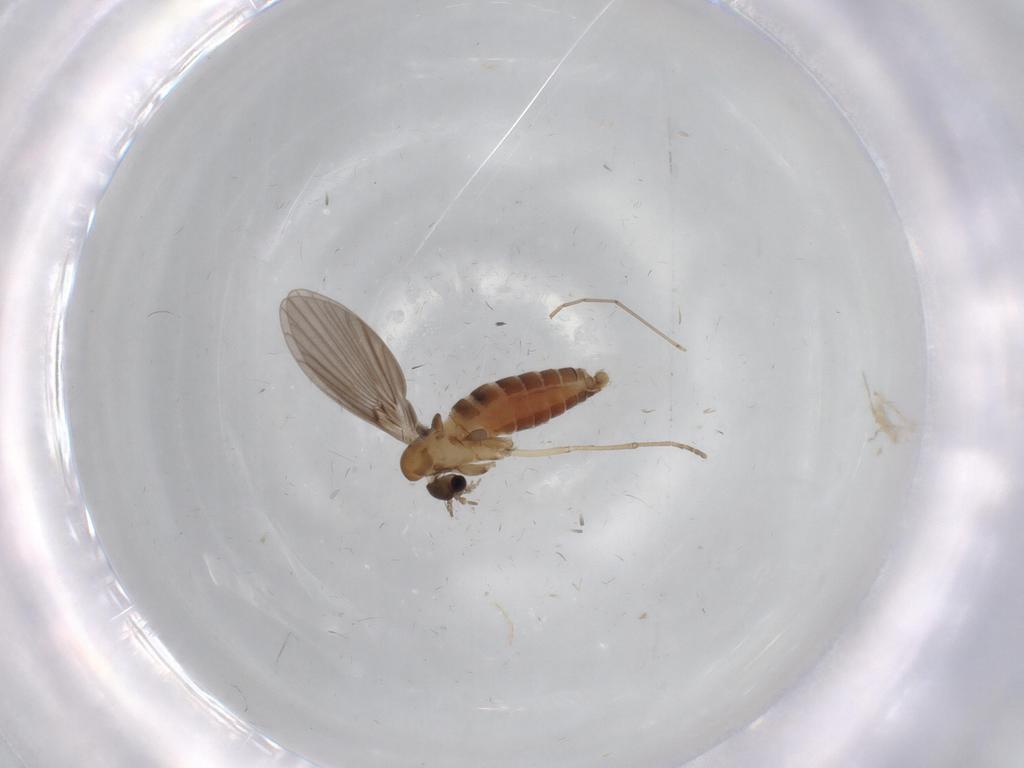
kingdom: Animalia
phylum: Arthropoda
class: Insecta
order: Diptera
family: Cecidomyiidae
